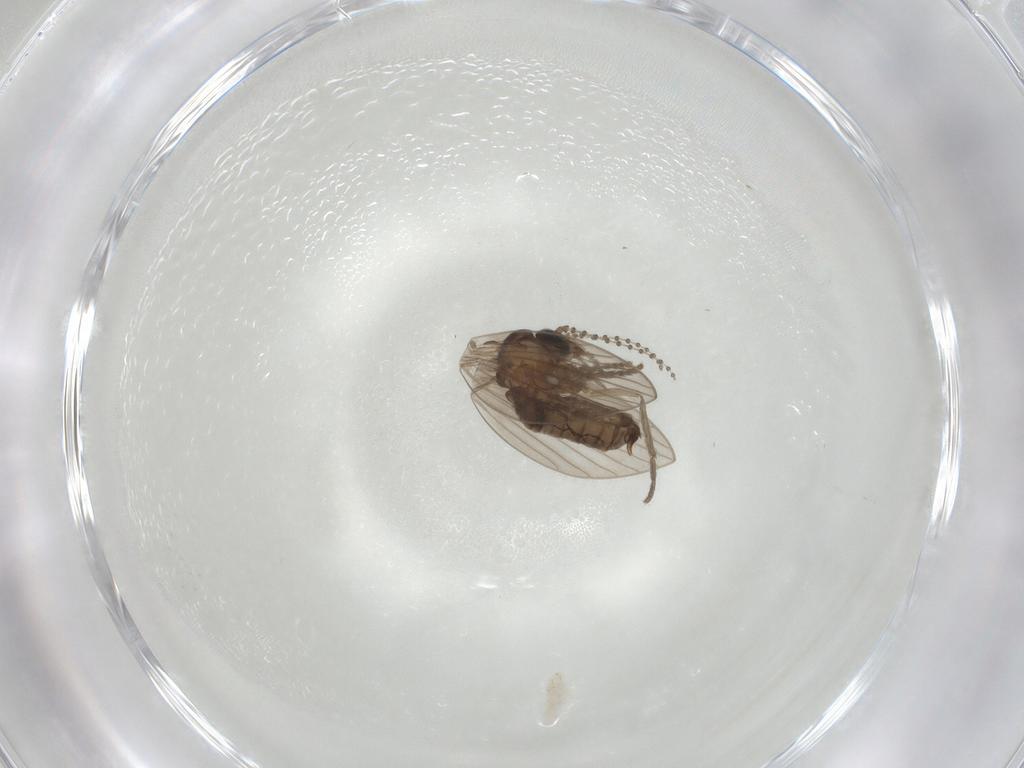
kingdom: Animalia
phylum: Arthropoda
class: Insecta
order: Diptera
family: Psychodidae
